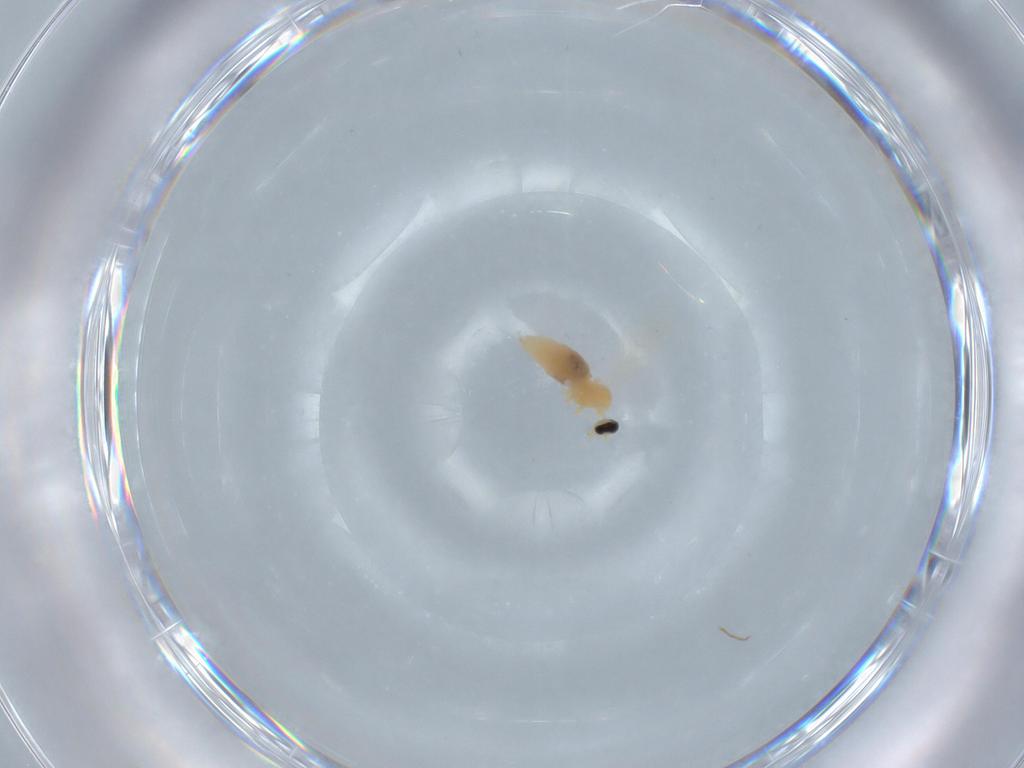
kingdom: Animalia
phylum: Arthropoda
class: Insecta
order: Diptera
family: Cecidomyiidae
